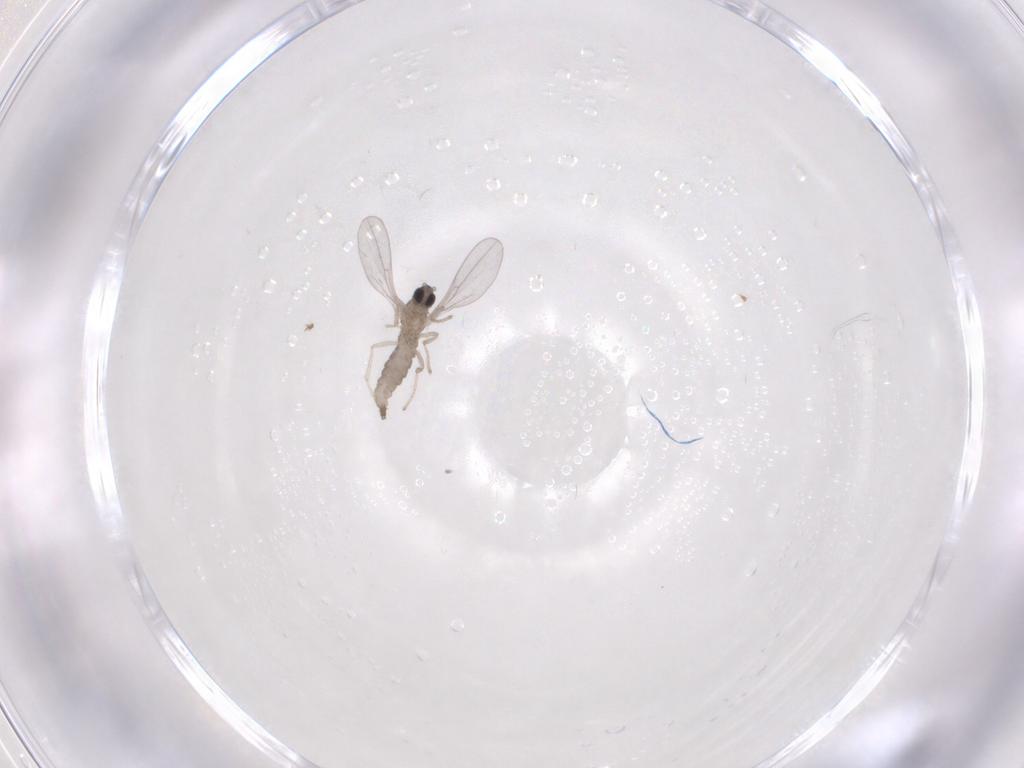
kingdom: Animalia
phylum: Arthropoda
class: Insecta
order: Diptera
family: Cecidomyiidae
